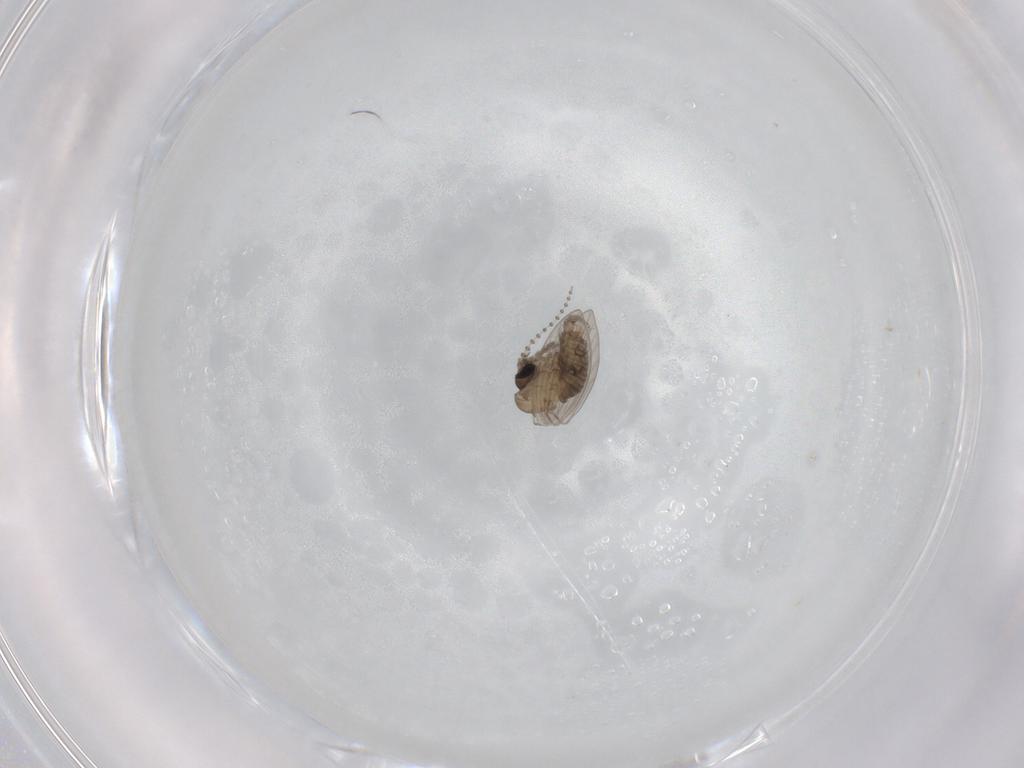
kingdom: Animalia
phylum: Arthropoda
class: Insecta
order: Diptera
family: Psychodidae
